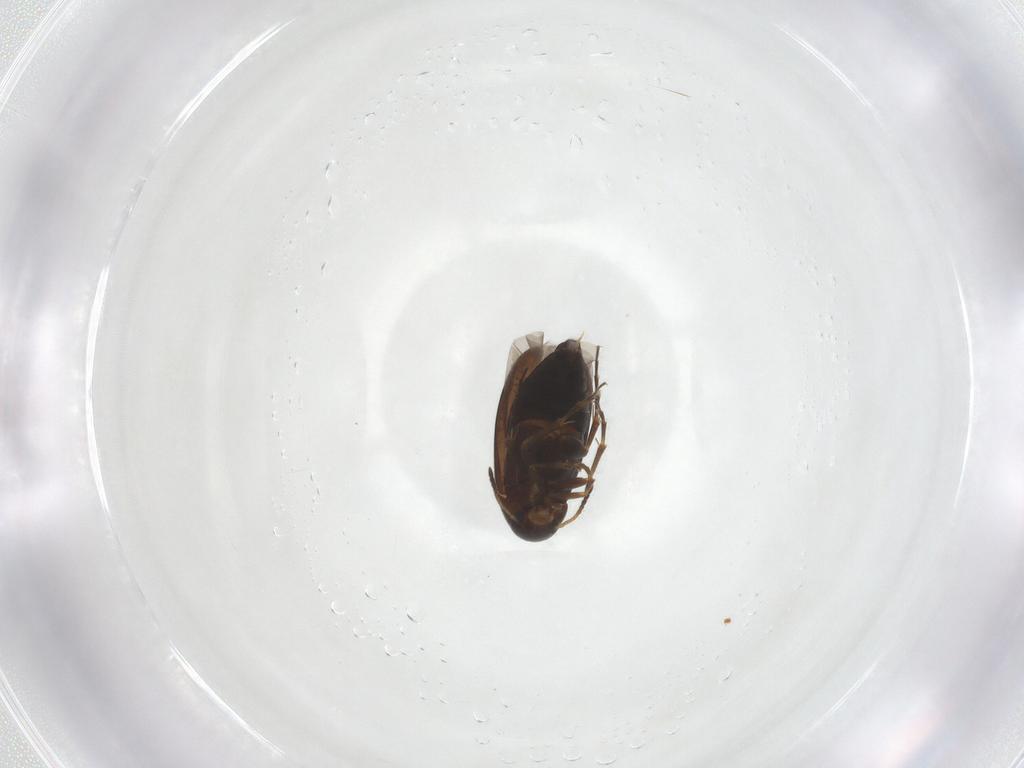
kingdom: Animalia
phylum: Arthropoda
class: Insecta
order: Coleoptera
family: Scraptiidae
